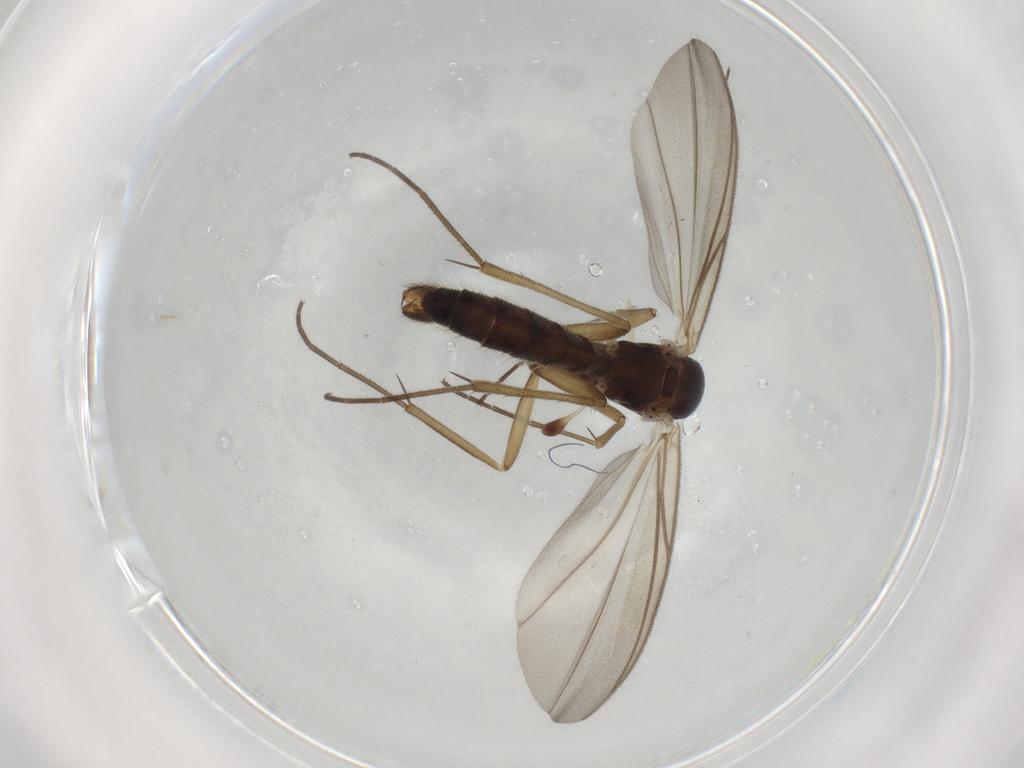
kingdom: Animalia
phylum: Arthropoda
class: Insecta
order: Diptera
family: Mycetophilidae
